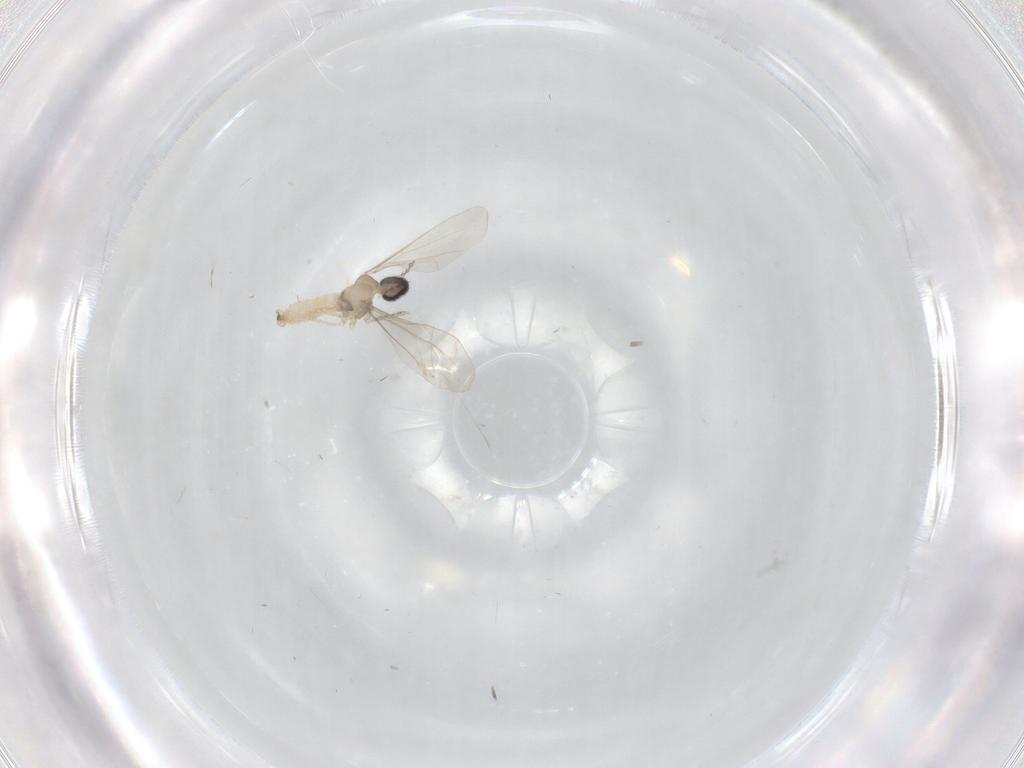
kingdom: Animalia
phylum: Arthropoda
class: Insecta
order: Diptera
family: Cecidomyiidae
